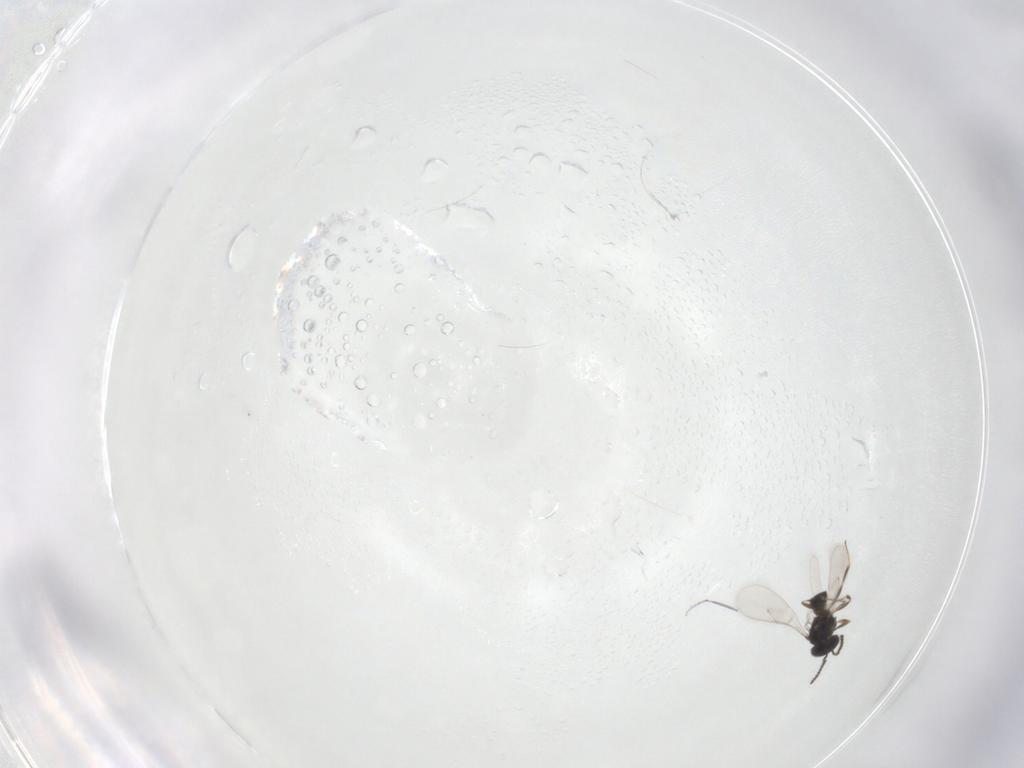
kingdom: Animalia
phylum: Arthropoda
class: Insecta
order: Hymenoptera
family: Scelionidae
